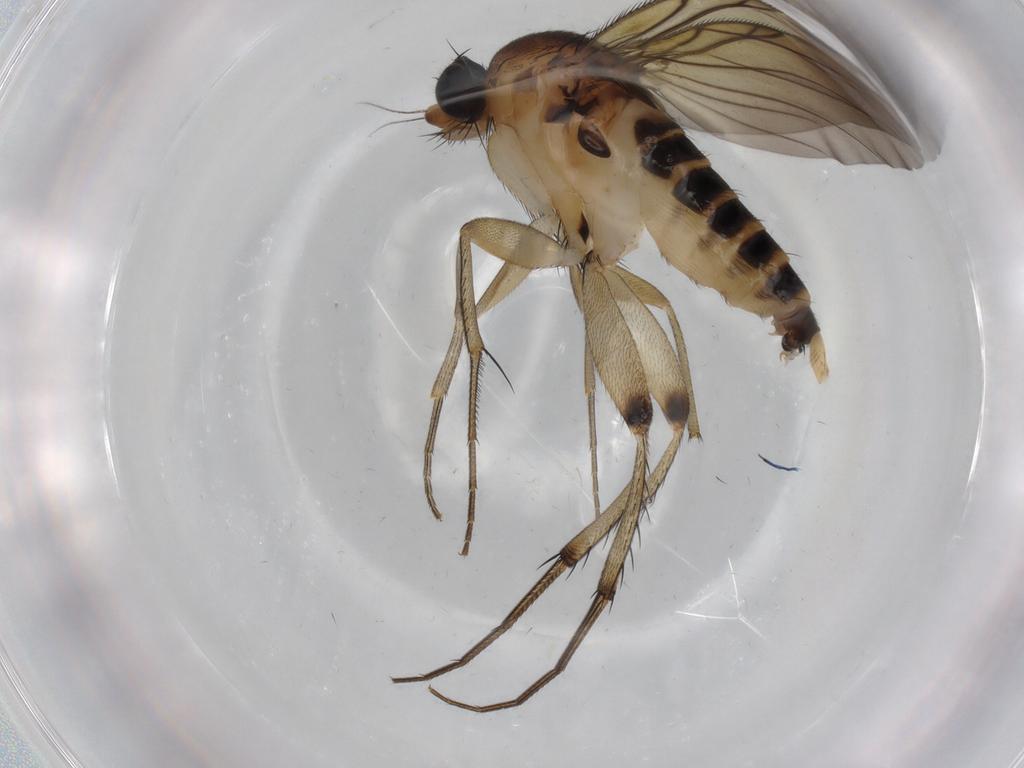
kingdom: Animalia
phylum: Arthropoda
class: Insecta
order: Diptera
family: Phoridae
